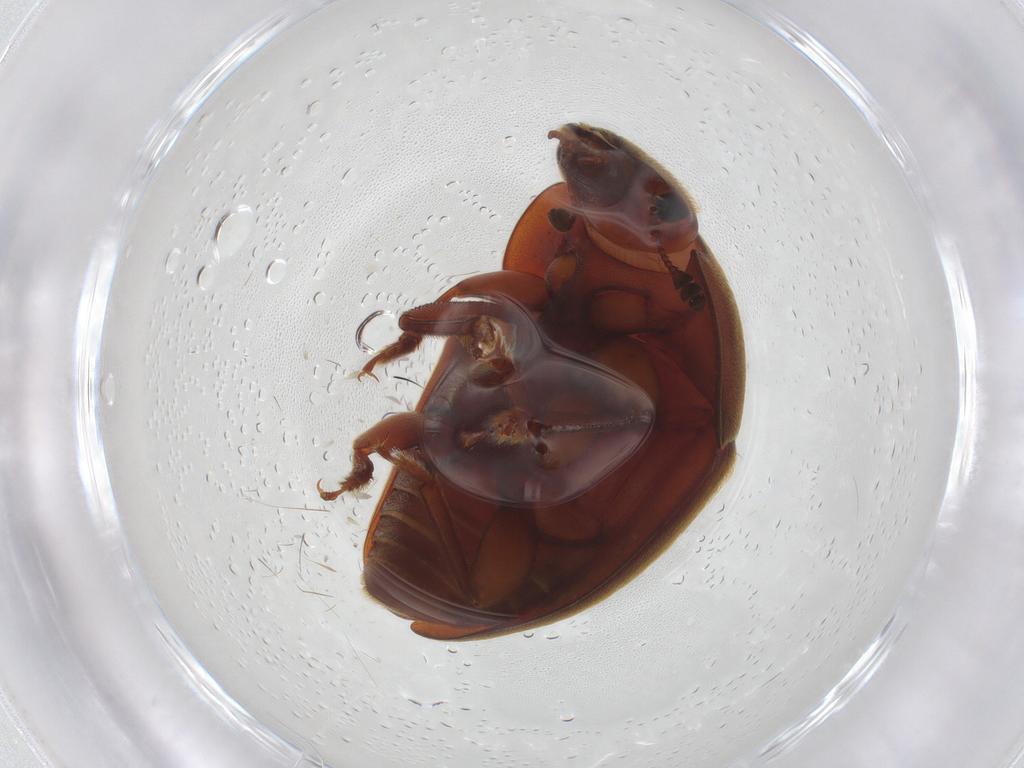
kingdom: Animalia
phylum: Arthropoda
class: Insecta
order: Coleoptera
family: Nitidulidae
